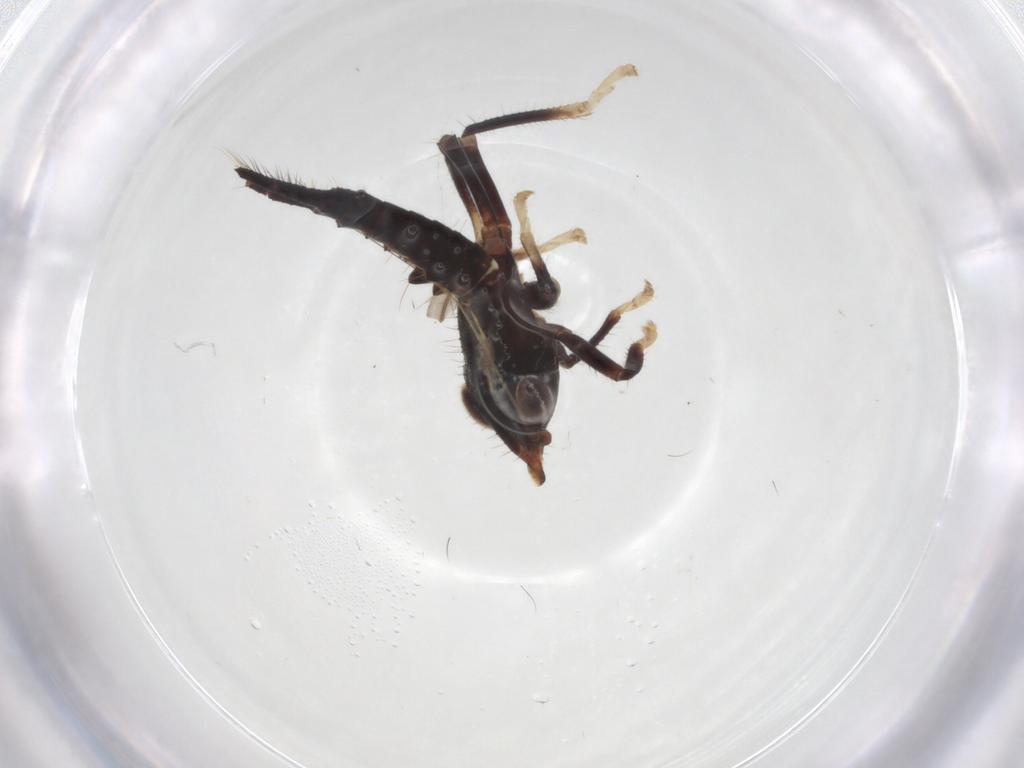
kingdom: Animalia
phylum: Arthropoda
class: Insecta
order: Hemiptera
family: Cicadellidae
